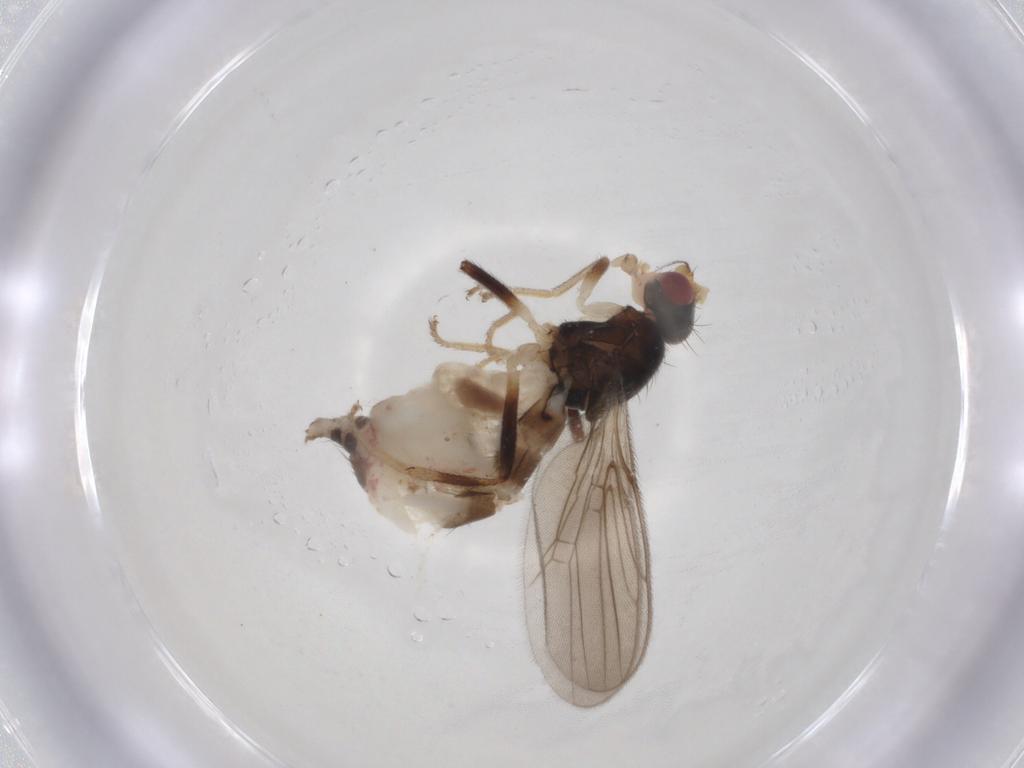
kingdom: Animalia
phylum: Arthropoda
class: Insecta
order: Diptera
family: Chloropidae
